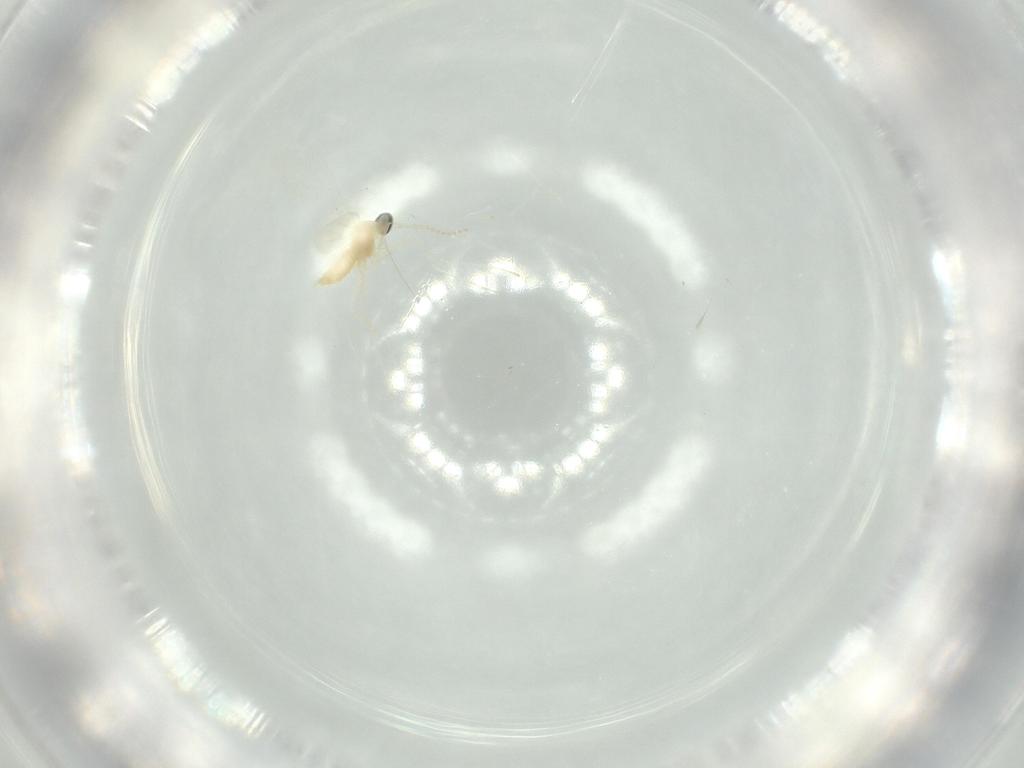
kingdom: Animalia
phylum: Arthropoda
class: Insecta
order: Diptera
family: Cecidomyiidae
